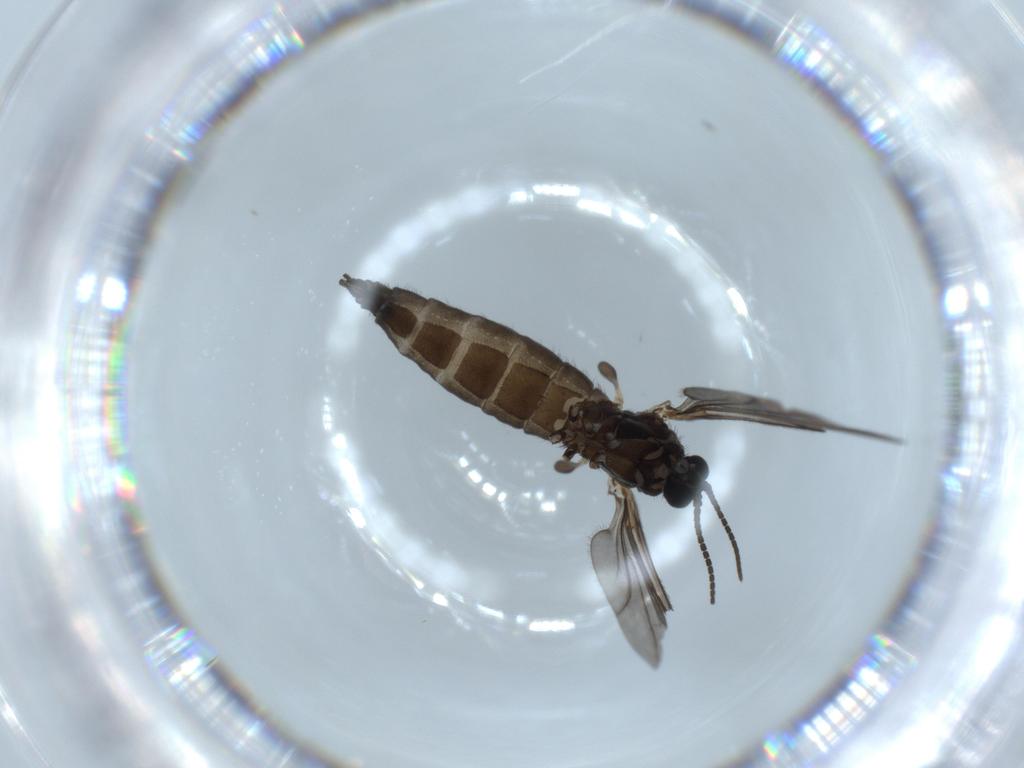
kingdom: Animalia
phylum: Arthropoda
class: Insecta
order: Diptera
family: Sciaridae
